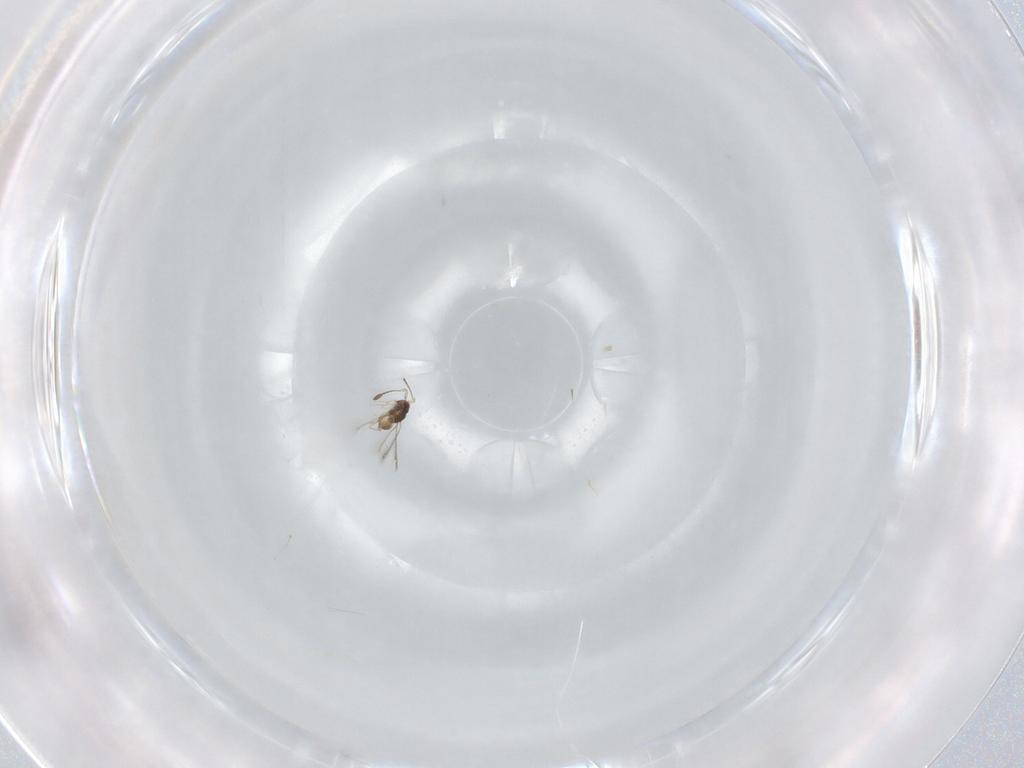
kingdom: Animalia
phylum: Arthropoda
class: Insecta
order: Hymenoptera
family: Mymaridae
